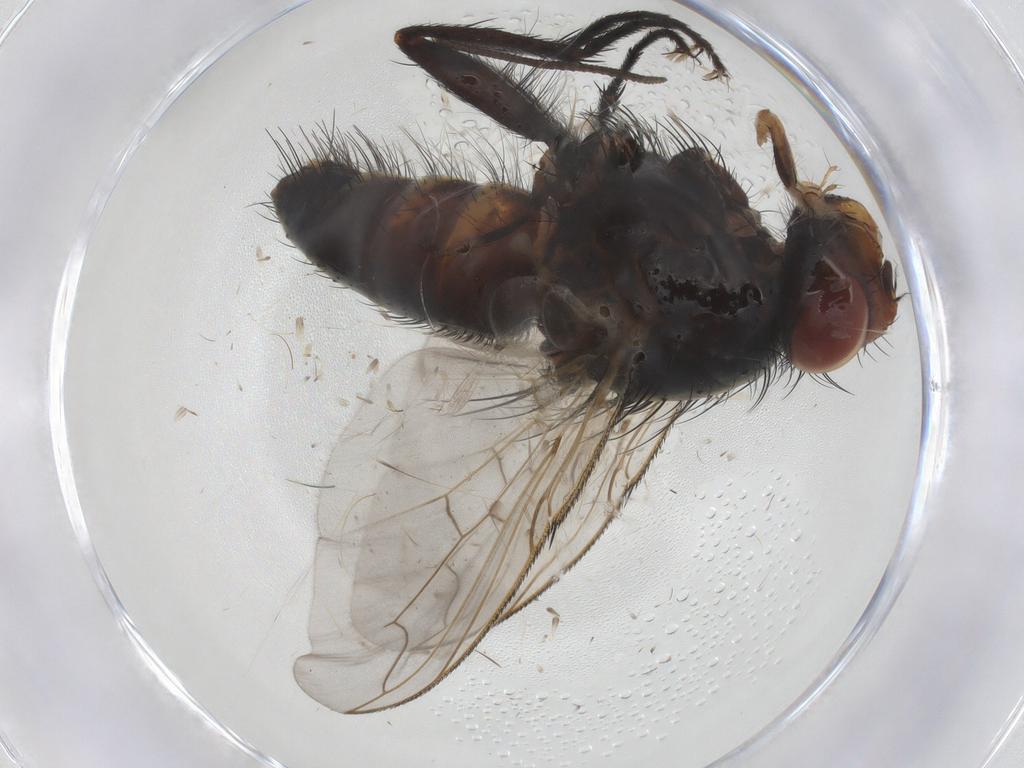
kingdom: Animalia
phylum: Arthropoda
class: Insecta
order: Diptera
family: Tachinidae
